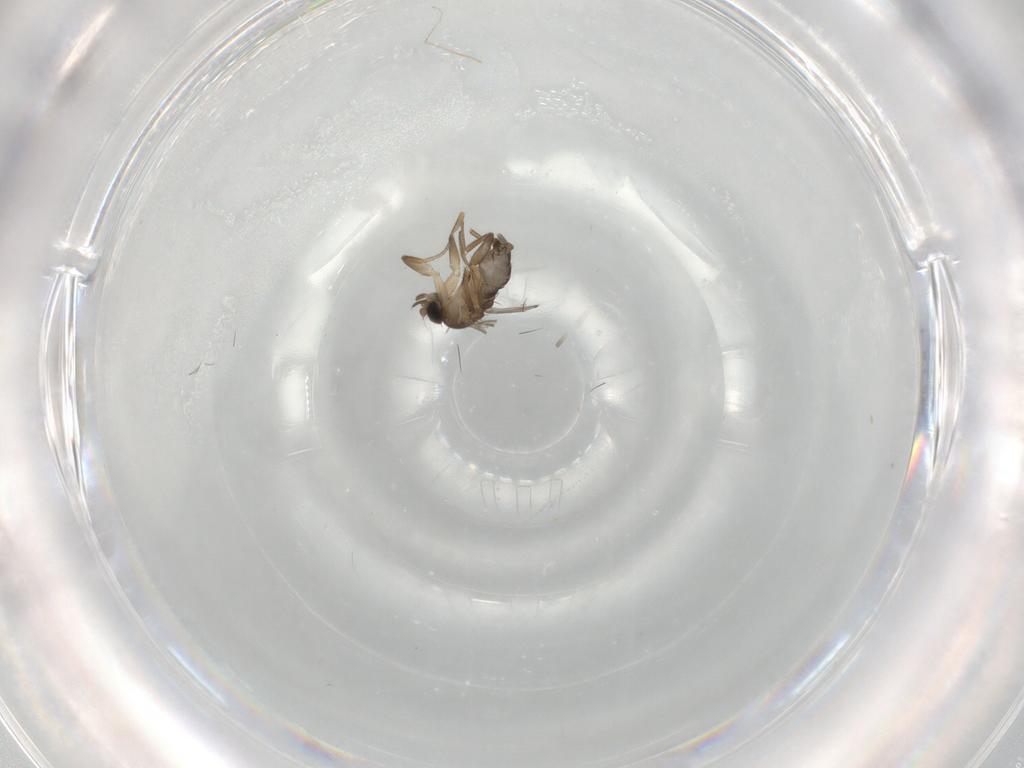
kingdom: Animalia
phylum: Arthropoda
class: Insecta
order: Diptera
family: Phoridae
